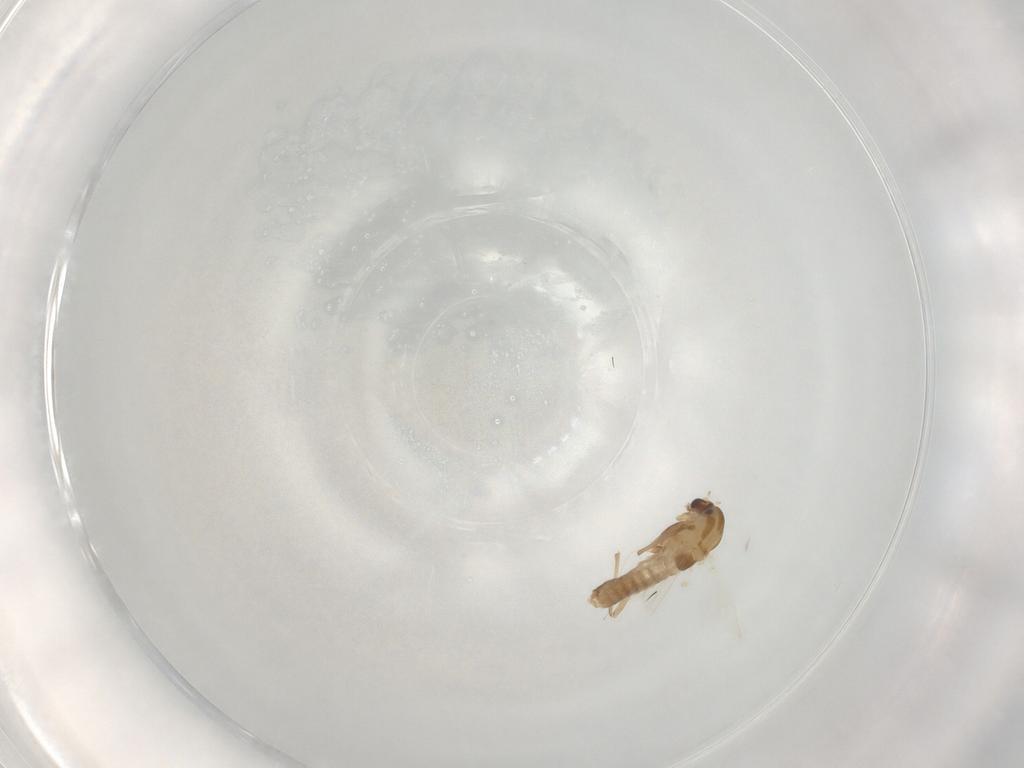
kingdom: Animalia
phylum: Arthropoda
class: Insecta
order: Diptera
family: Chironomidae
